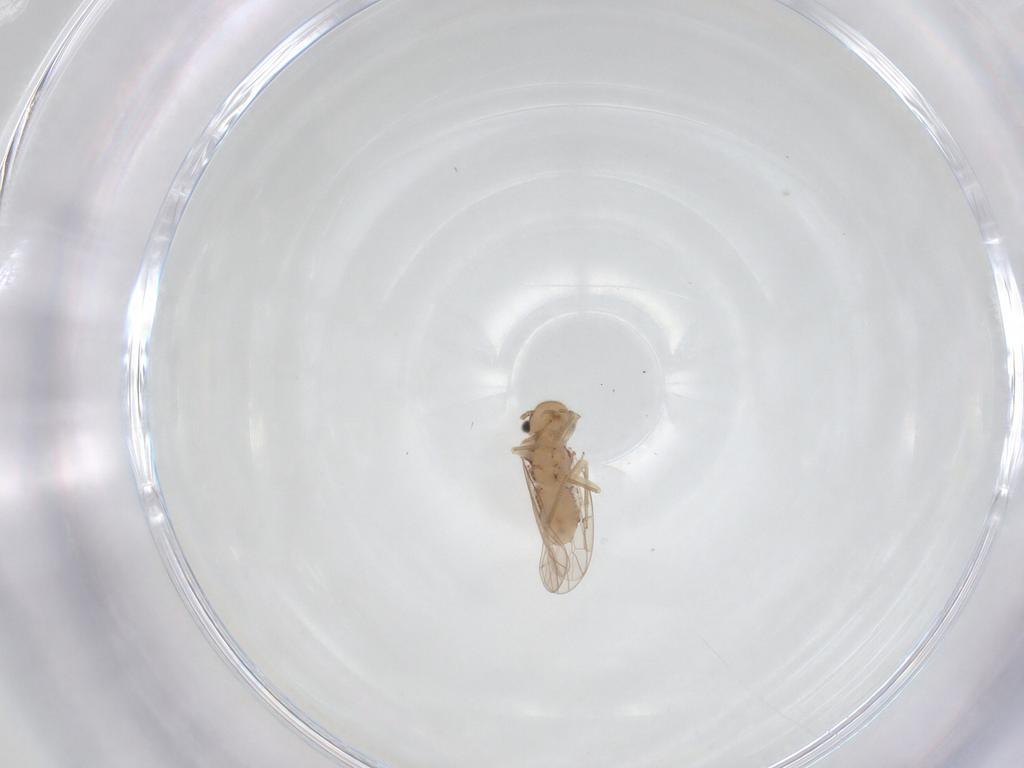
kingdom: Animalia
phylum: Arthropoda
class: Insecta
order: Psocodea
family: Ectopsocidae
